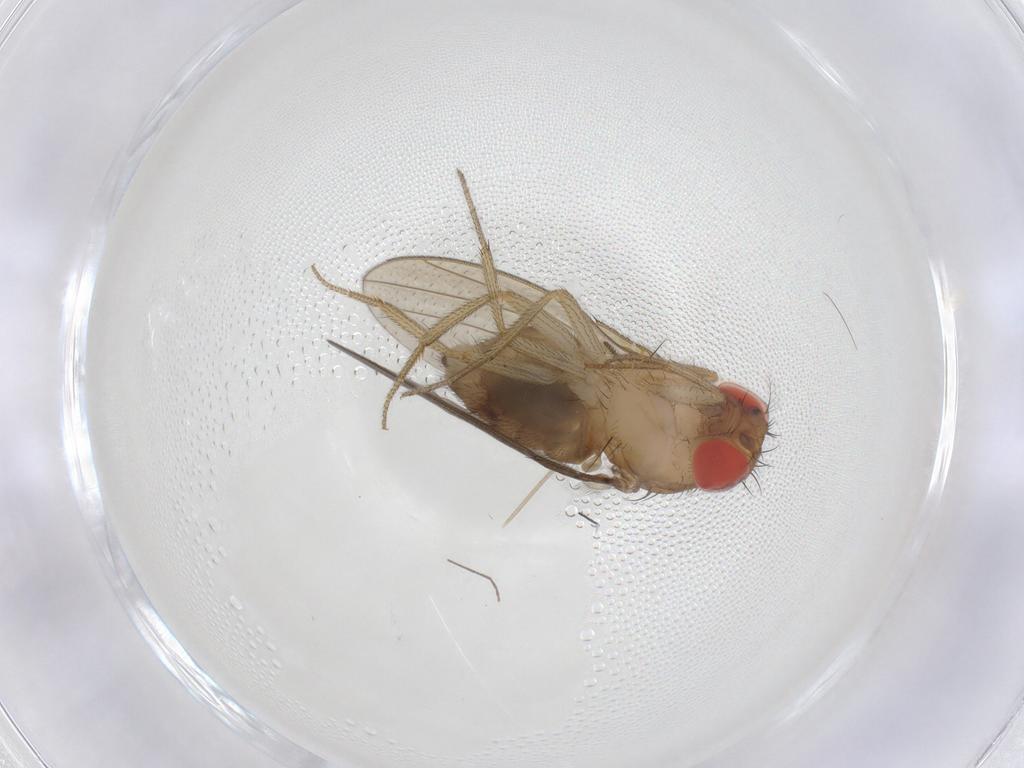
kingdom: Animalia
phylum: Arthropoda
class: Insecta
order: Diptera
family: Drosophilidae
